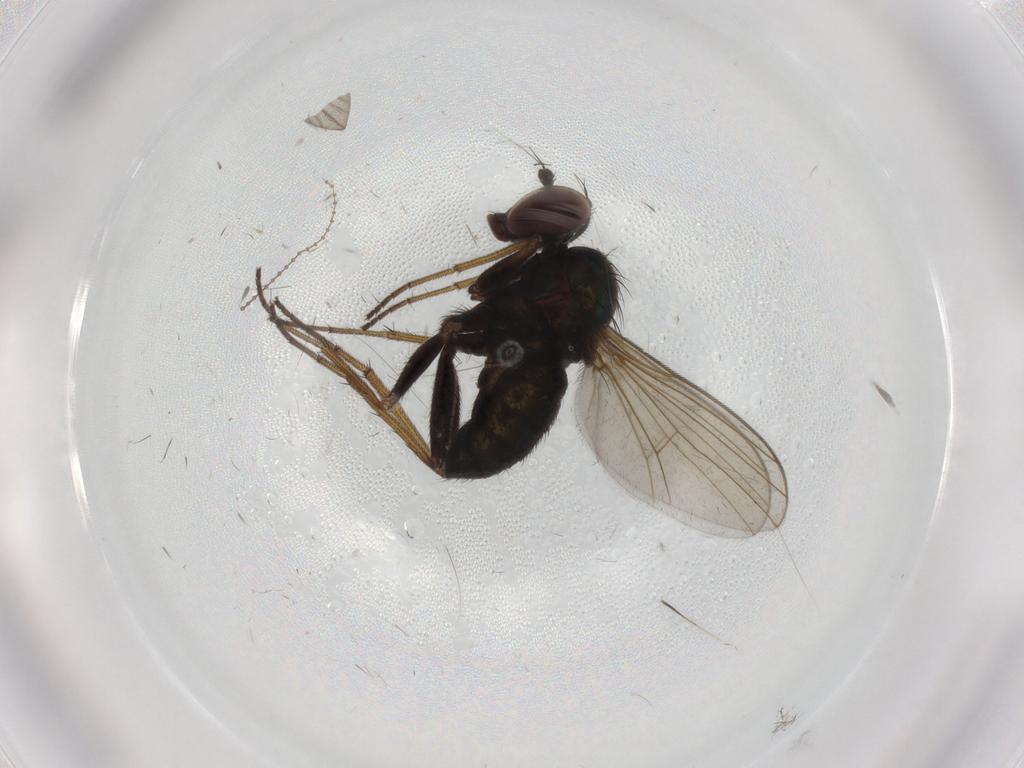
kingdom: Animalia
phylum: Arthropoda
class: Insecta
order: Diptera
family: Dolichopodidae
